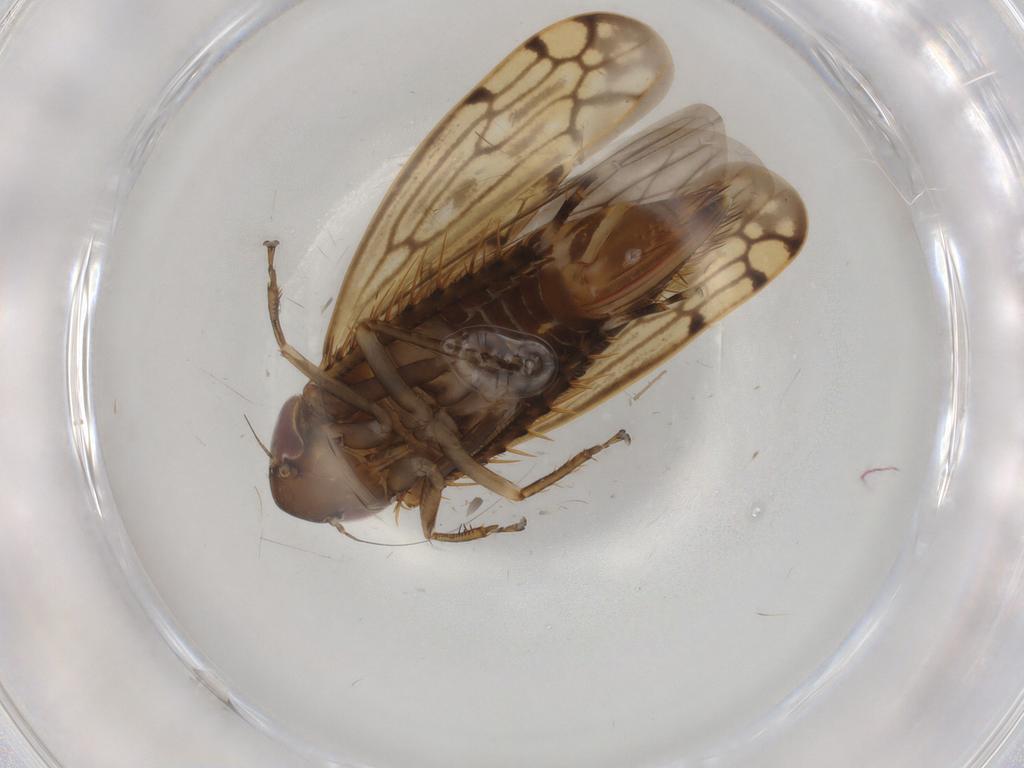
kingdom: Animalia
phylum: Arthropoda
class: Insecta
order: Hemiptera
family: Cicadellidae
